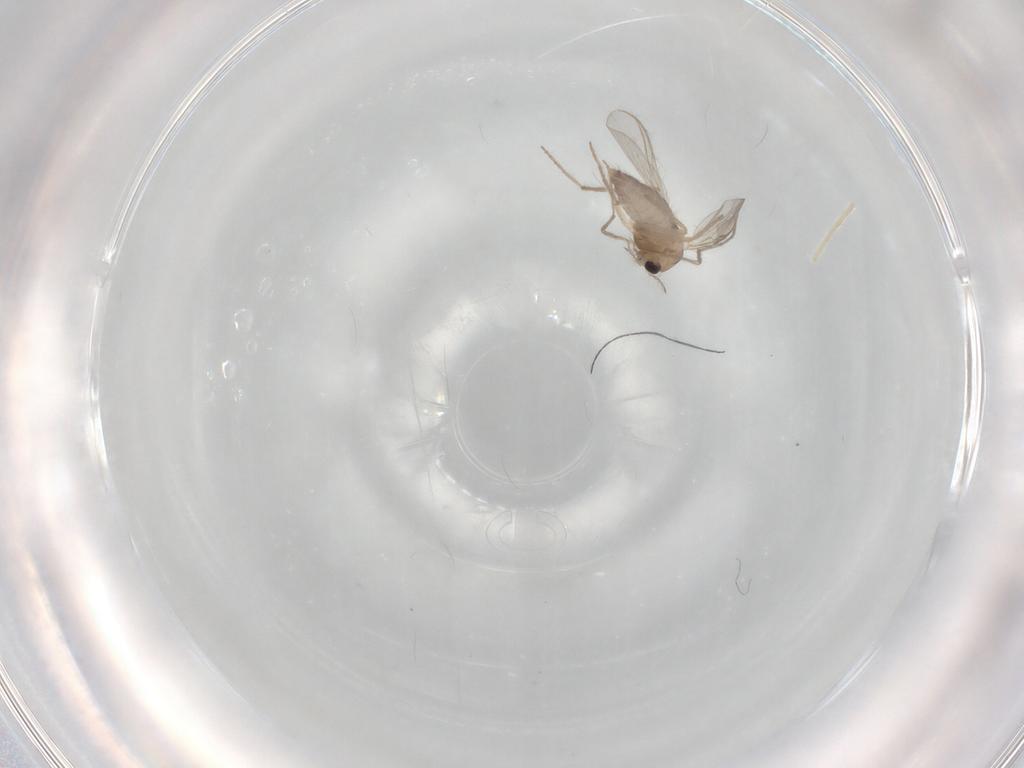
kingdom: Animalia
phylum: Arthropoda
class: Insecta
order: Diptera
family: Chironomidae
